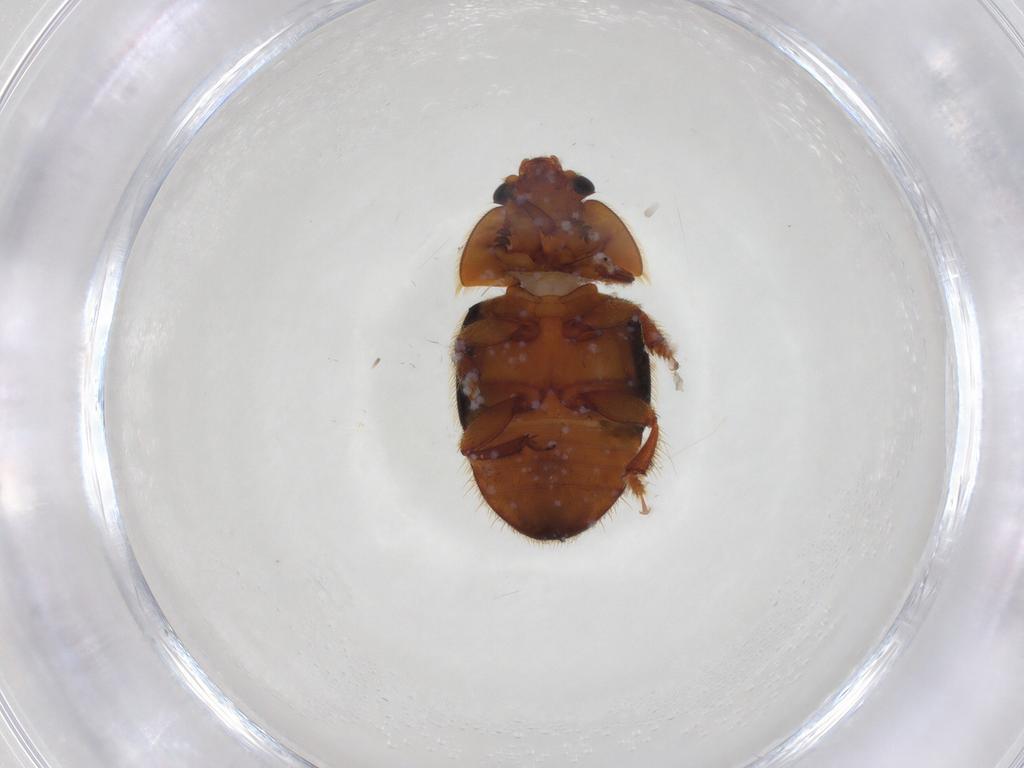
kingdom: Animalia
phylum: Arthropoda
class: Insecta
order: Coleoptera
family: Nitidulidae
